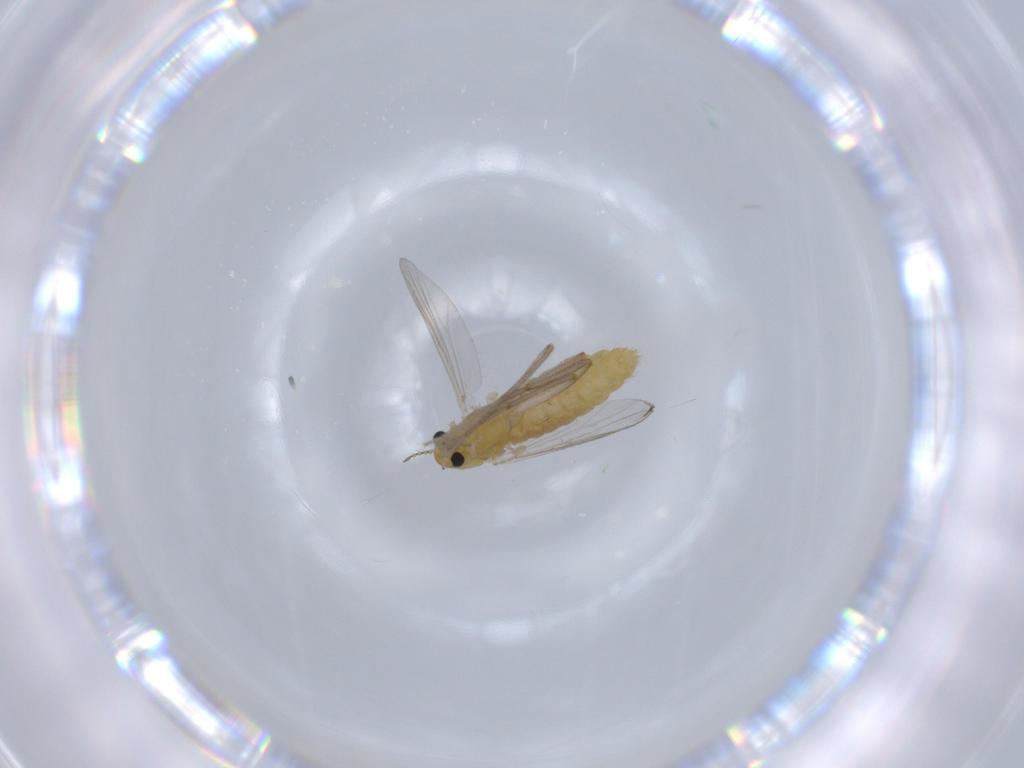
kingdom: Animalia
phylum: Arthropoda
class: Insecta
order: Diptera
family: Chironomidae
